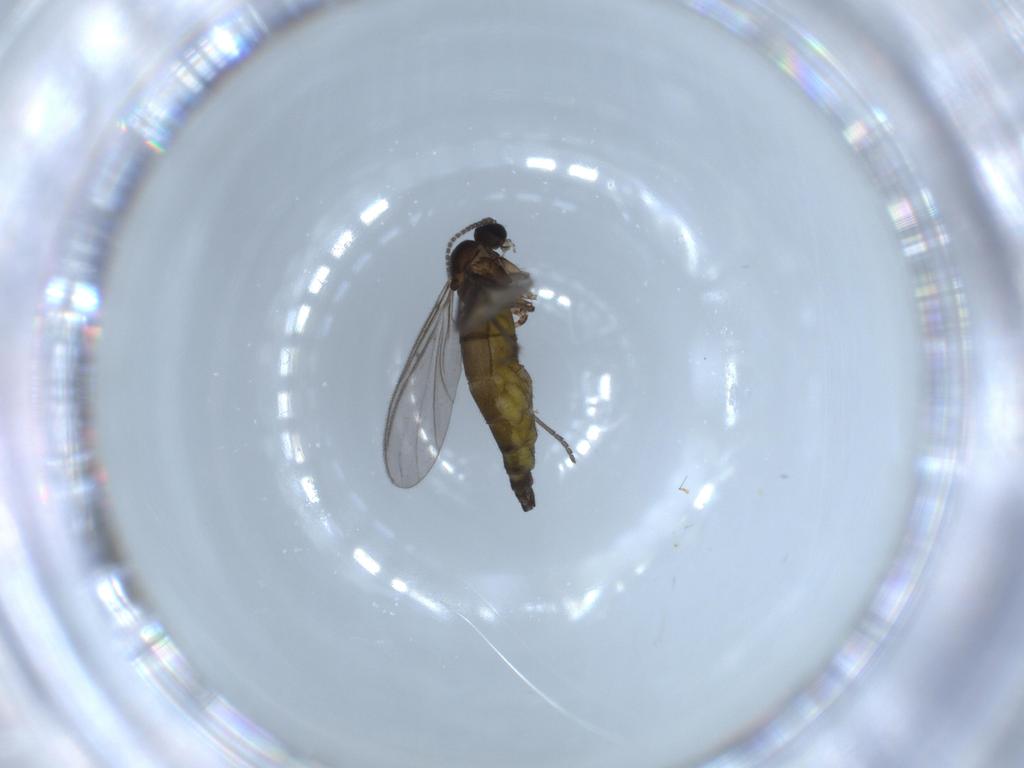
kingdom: Animalia
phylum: Arthropoda
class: Insecta
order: Diptera
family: Sciaridae
